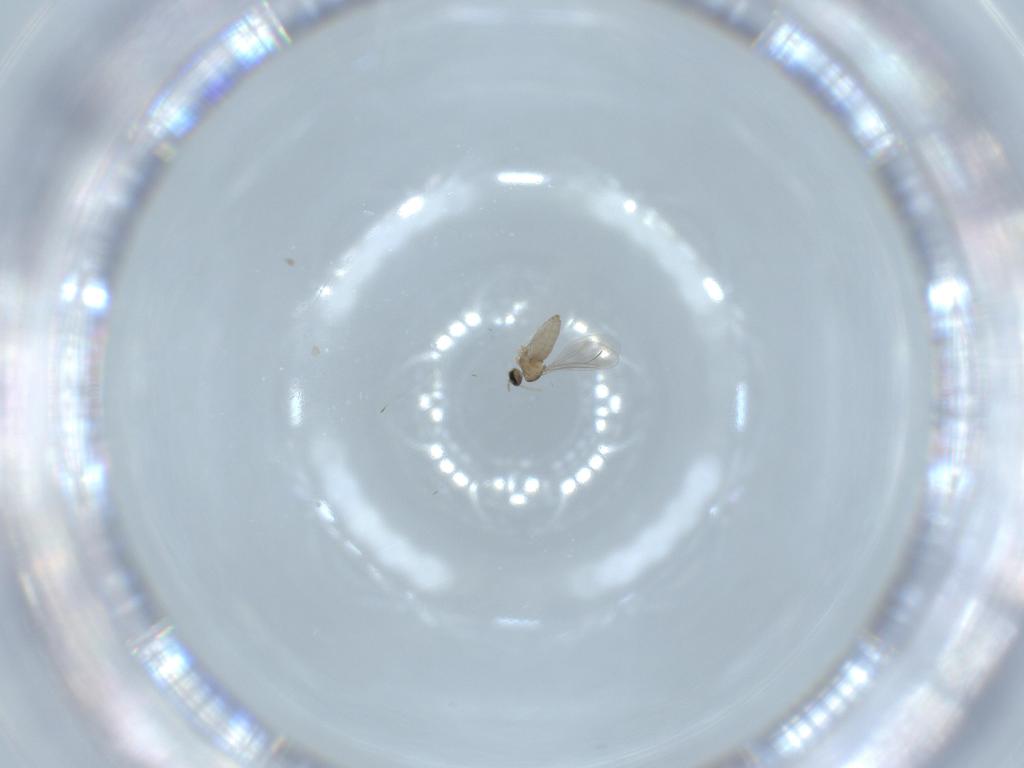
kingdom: Animalia
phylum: Arthropoda
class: Insecta
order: Diptera
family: Cecidomyiidae
